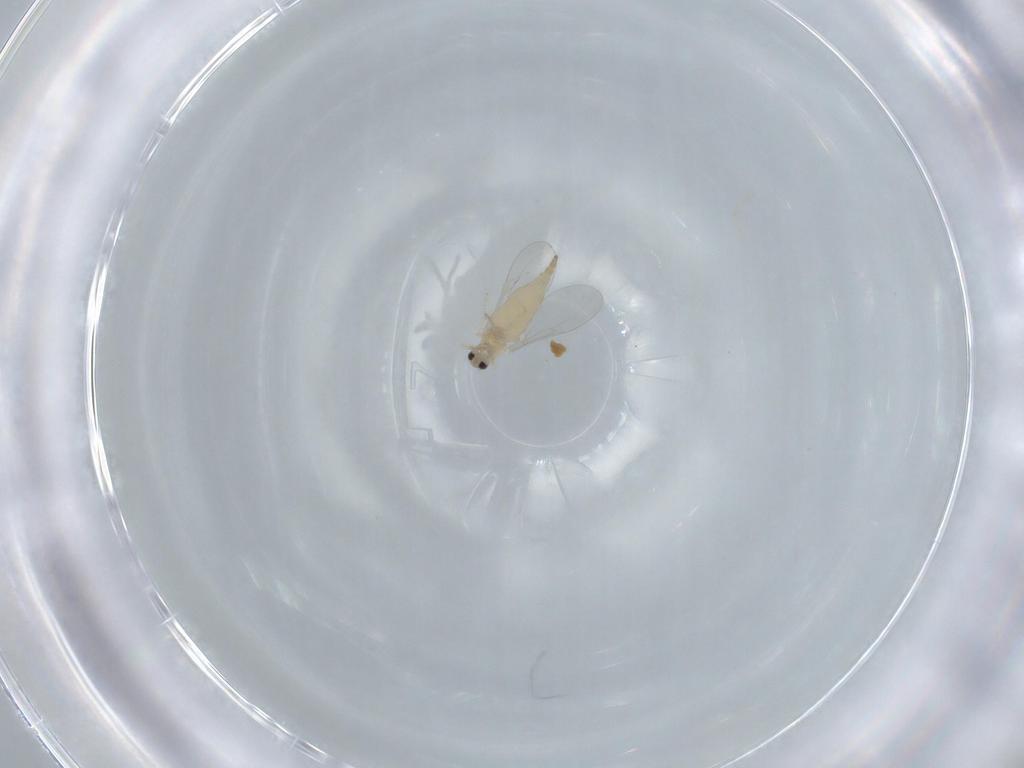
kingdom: Animalia
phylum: Arthropoda
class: Insecta
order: Diptera
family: Cecidomyiidae
